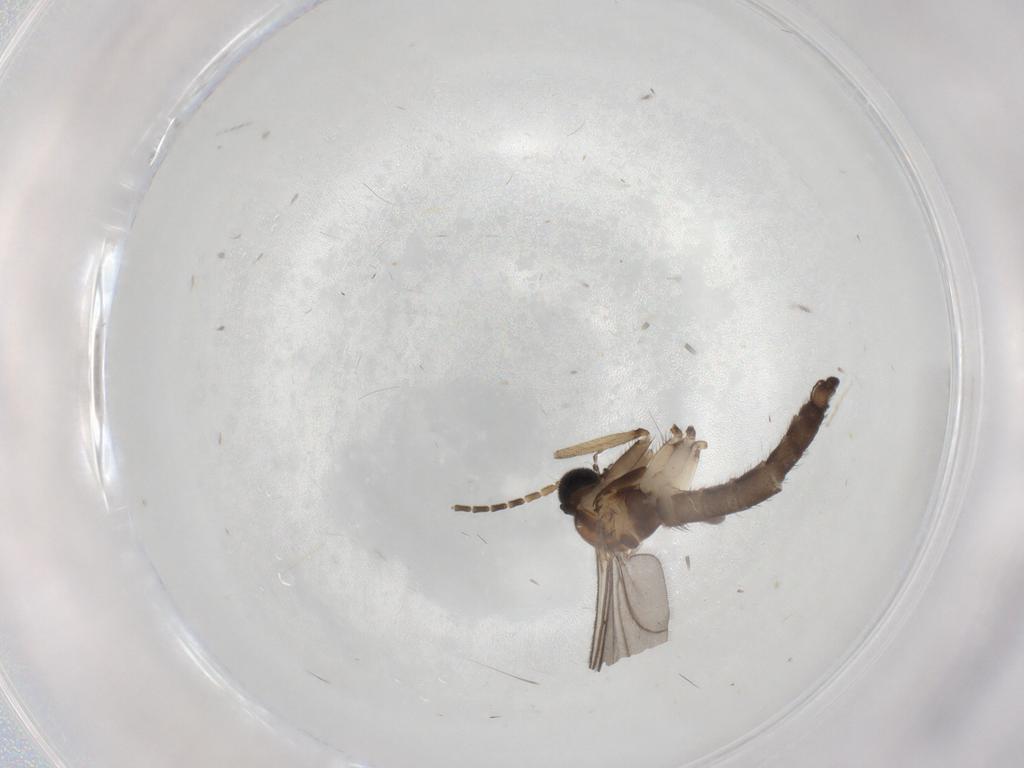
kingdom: Animalia
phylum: Arthropoda
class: Insecta
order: Diptera
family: Sciaridae
